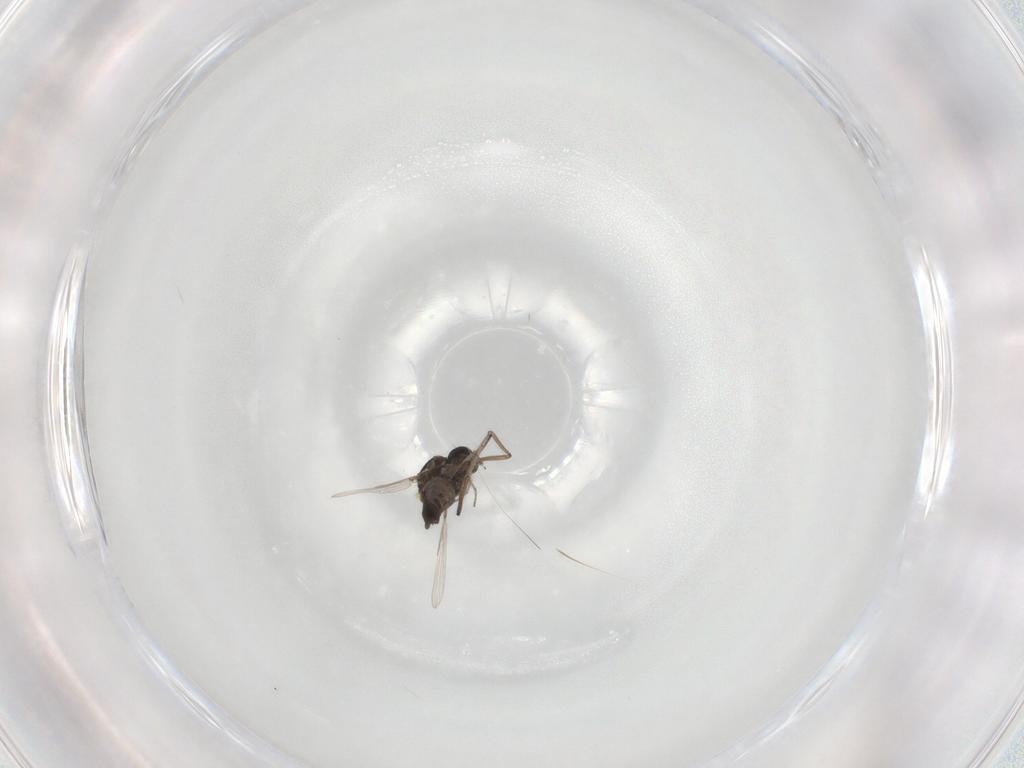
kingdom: Animalia
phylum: Arthropoda
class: Insecta
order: Diptera
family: Ceratopogonidae
